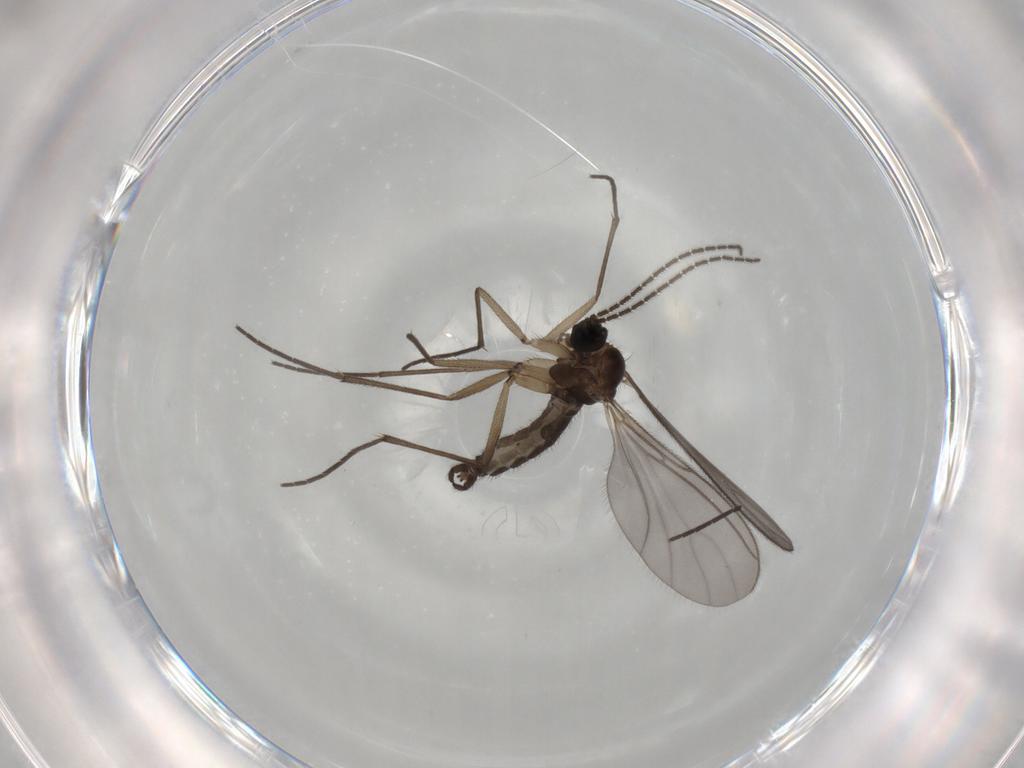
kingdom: Animalia
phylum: Arthropoda
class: Insecta
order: Diptera
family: Sciaridae
